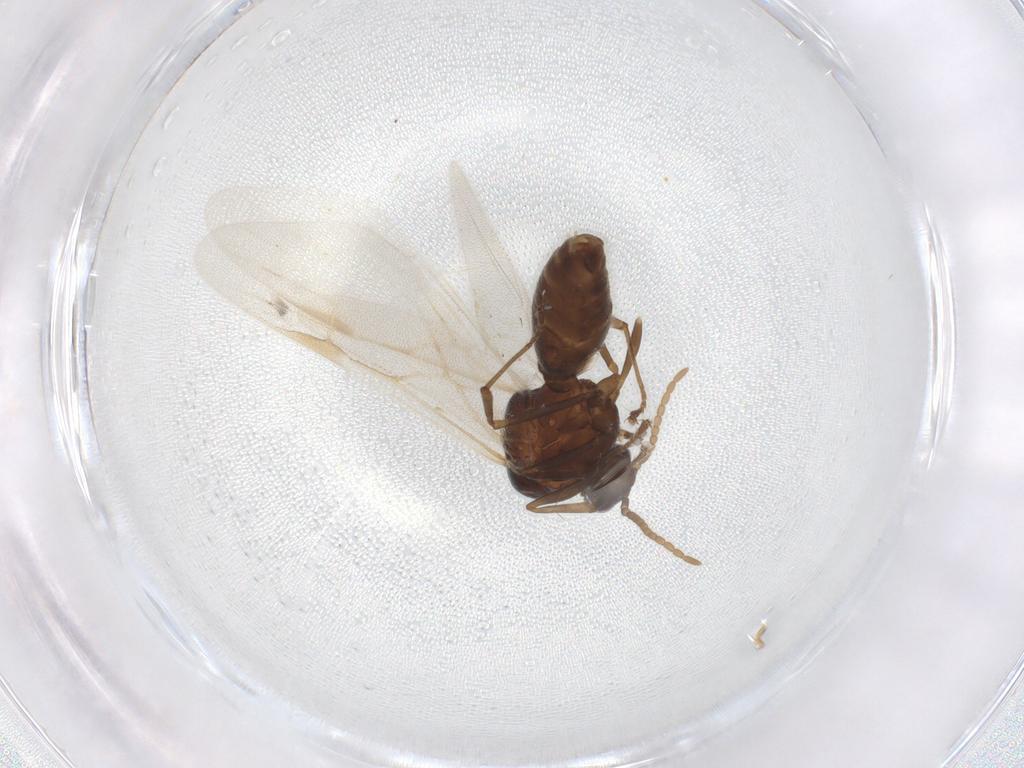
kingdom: Animalia
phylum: Arthropoda
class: Insecta
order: Hymenoptera
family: Formicidae
